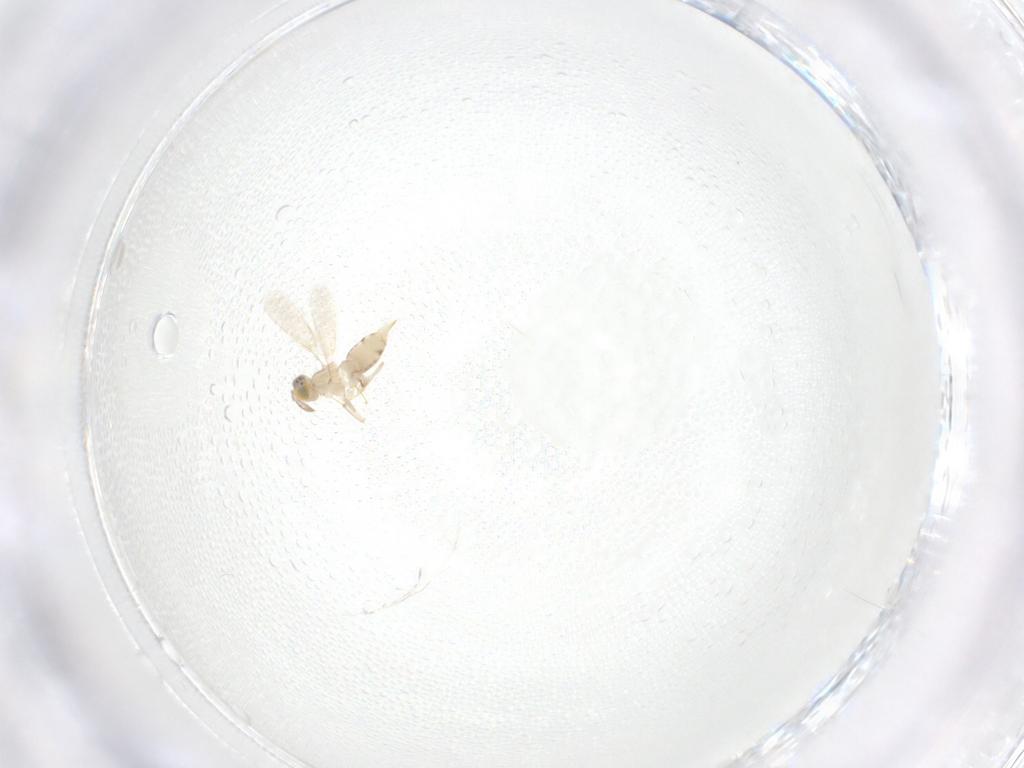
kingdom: Animalia
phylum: Arthropoda
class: Insecta
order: Hymenoptera
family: Aphelinidae
